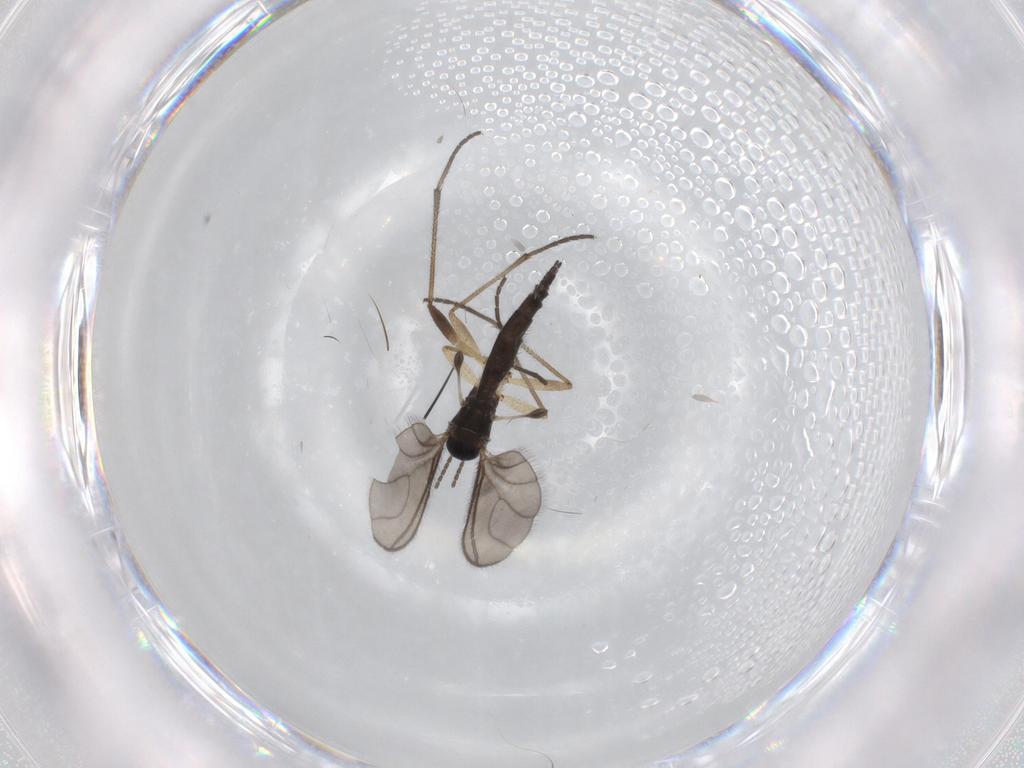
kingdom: Animalia
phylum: Arthropoda
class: Insecta
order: Diptera
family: Sciaridae
